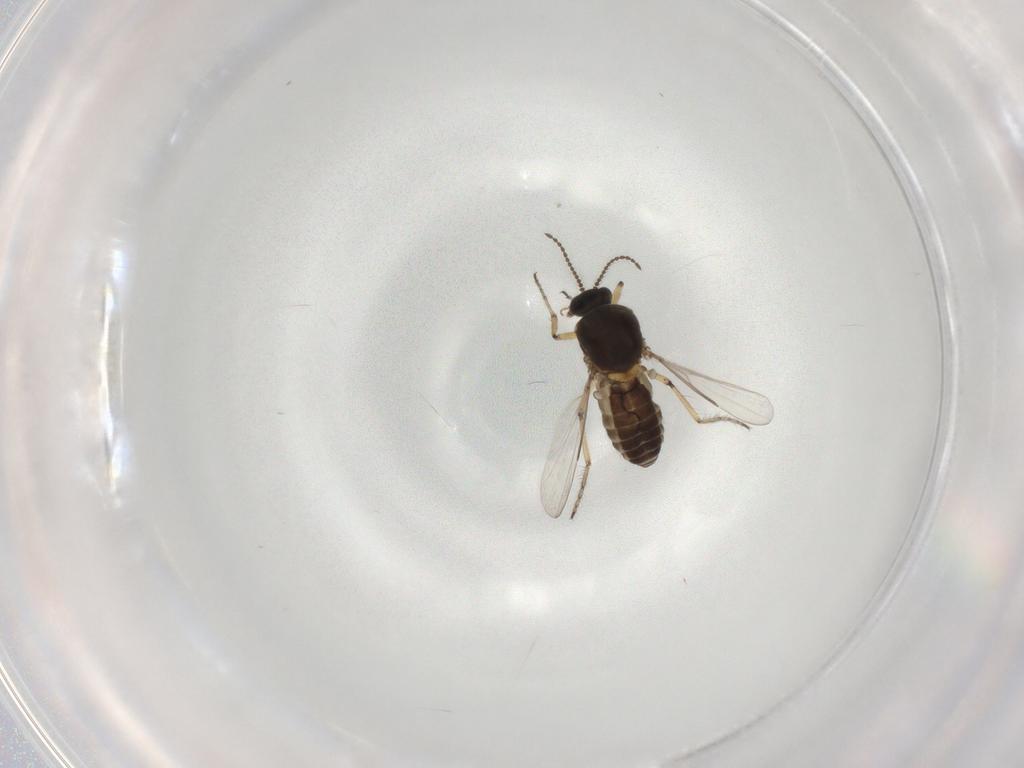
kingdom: Animalia
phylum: Arthropoda
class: Insecta
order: Diptera
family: Ceratopogonidae
